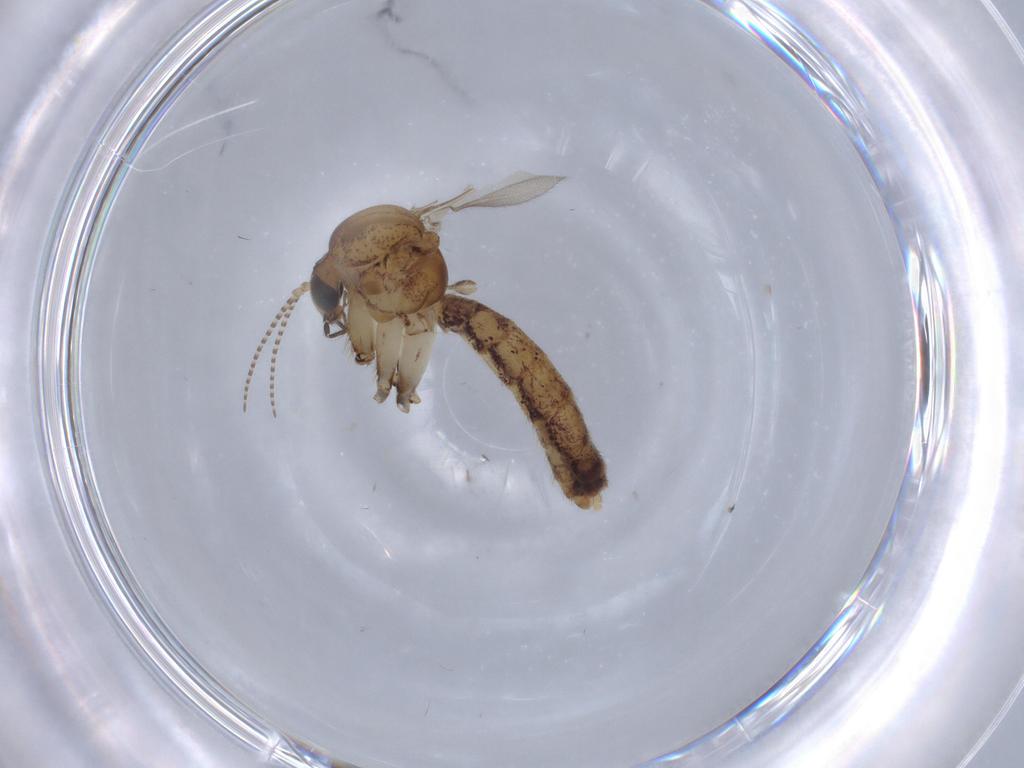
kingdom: Animalia
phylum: Arthropoda
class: Insecta
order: Diptera
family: Mycetophilidae
